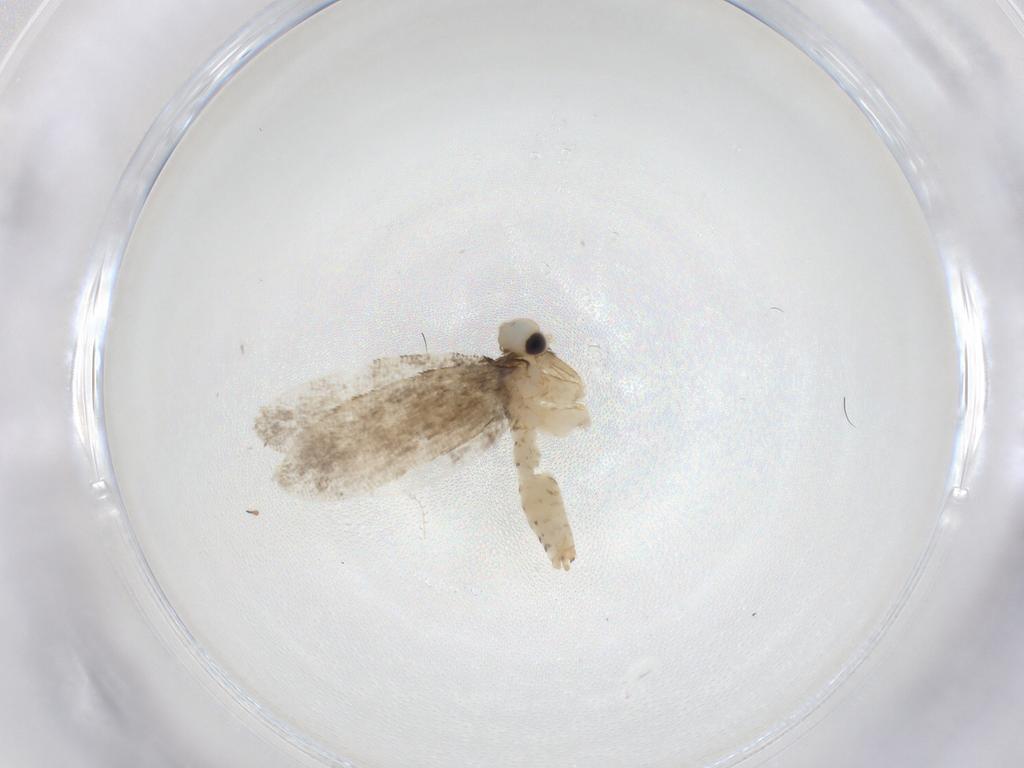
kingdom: Animalia
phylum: Arthropoda
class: Insecta
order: Lepidoptera
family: Psychidae
